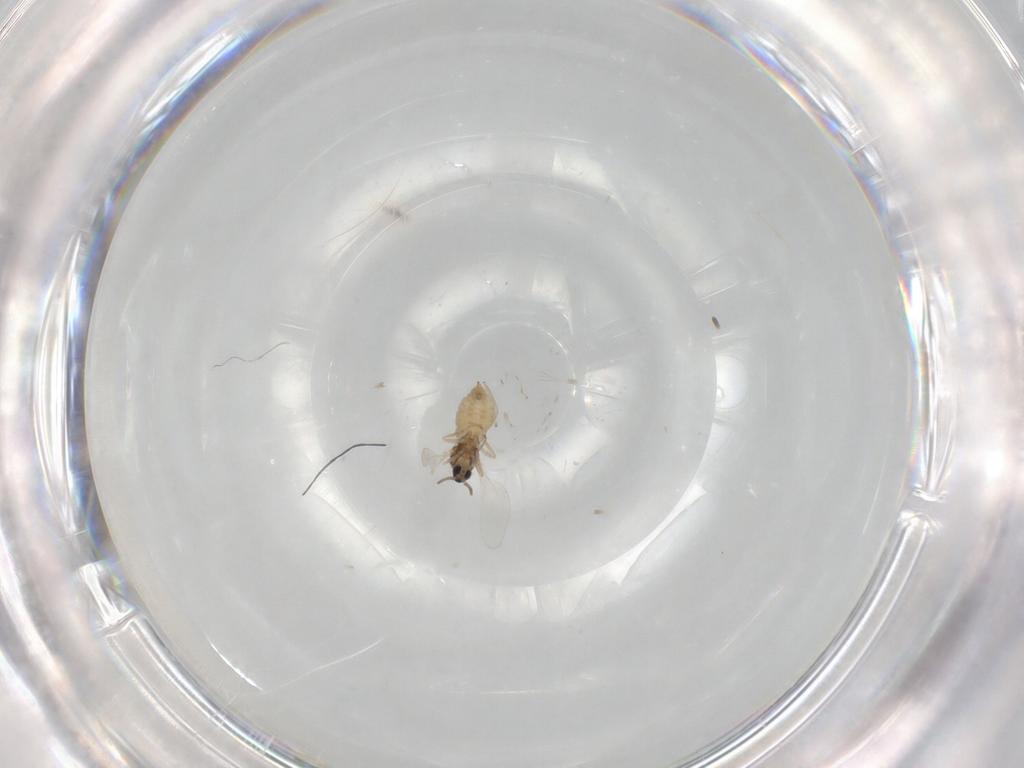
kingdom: Animalia
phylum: Arthropoda
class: Insecta
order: Diptera
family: Cecidomyiidae
